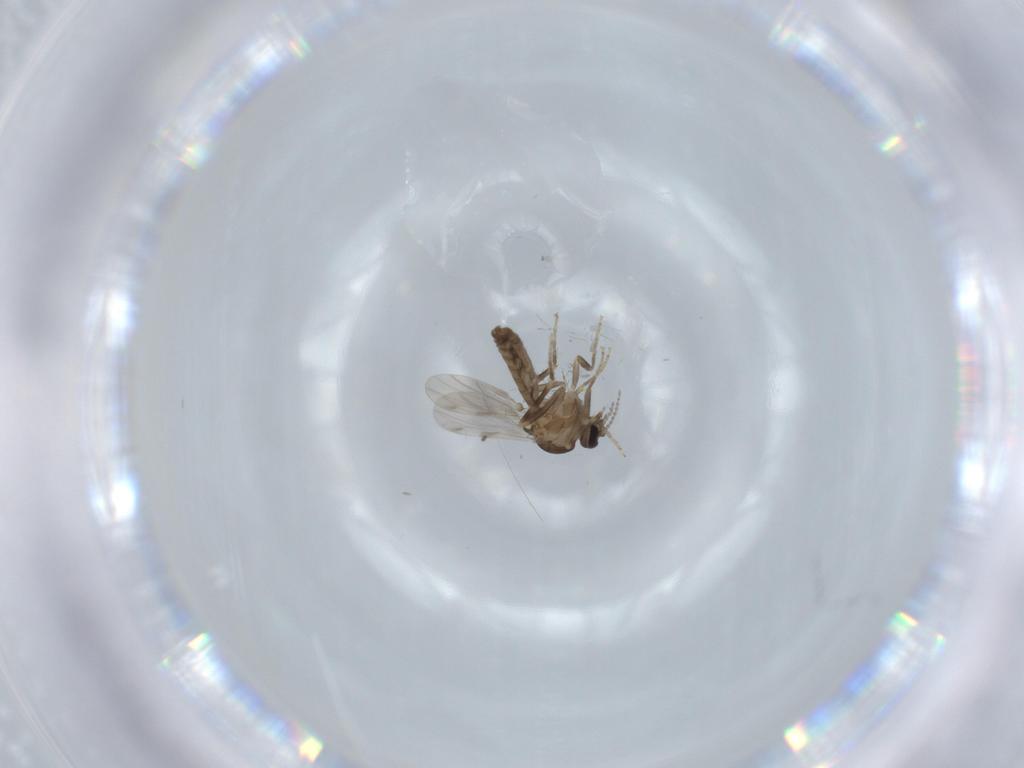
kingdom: Animalia
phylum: Arthropoda
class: Insecta
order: Diptera
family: Ceratopogonidae
